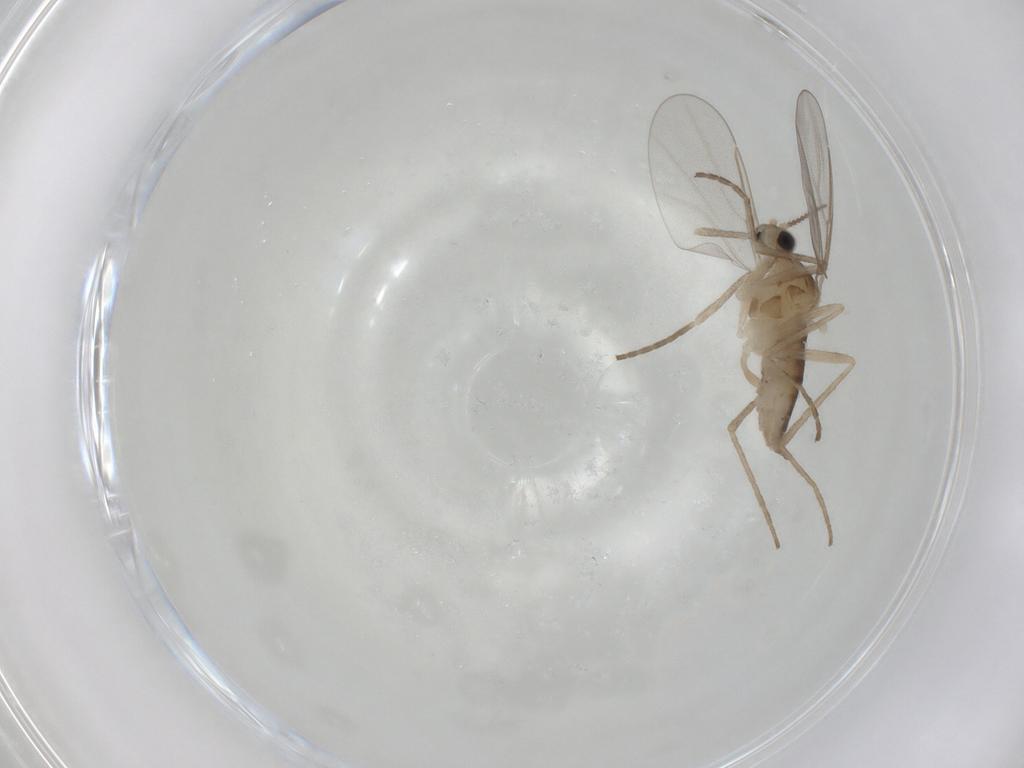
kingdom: Animalia
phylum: Arthropoda
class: Insecta
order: Diptera
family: Cecidomyiidae
